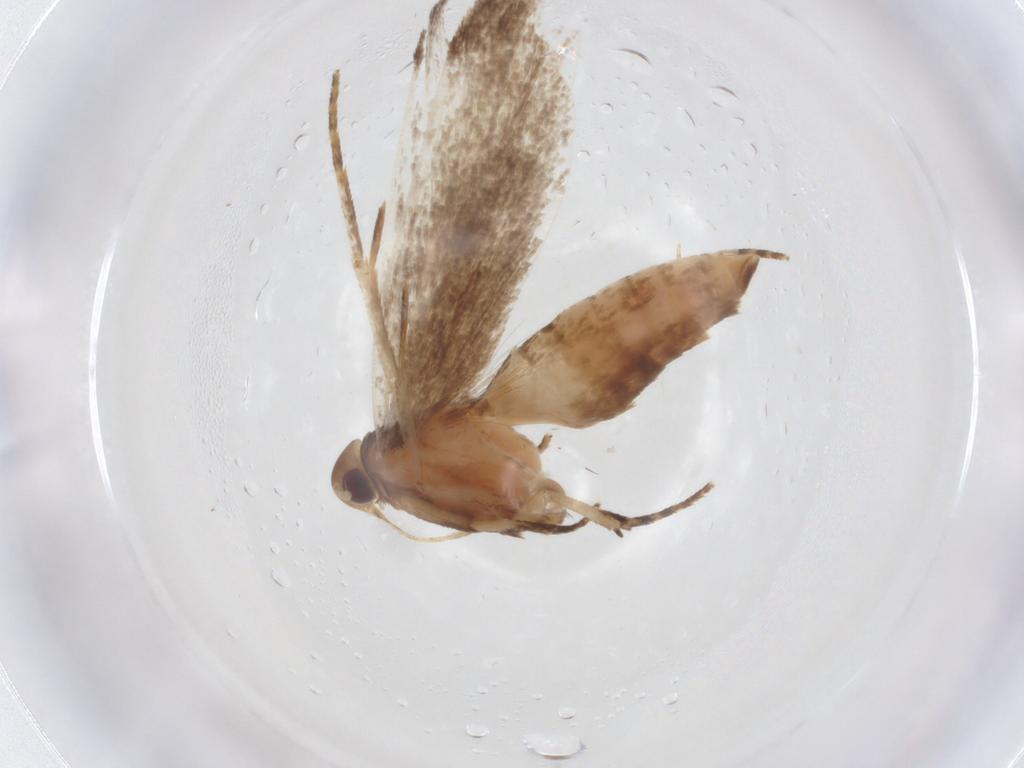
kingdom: Animalia
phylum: Arthropoda
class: Insecta
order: Lepidoptera
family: Gelechiidae
